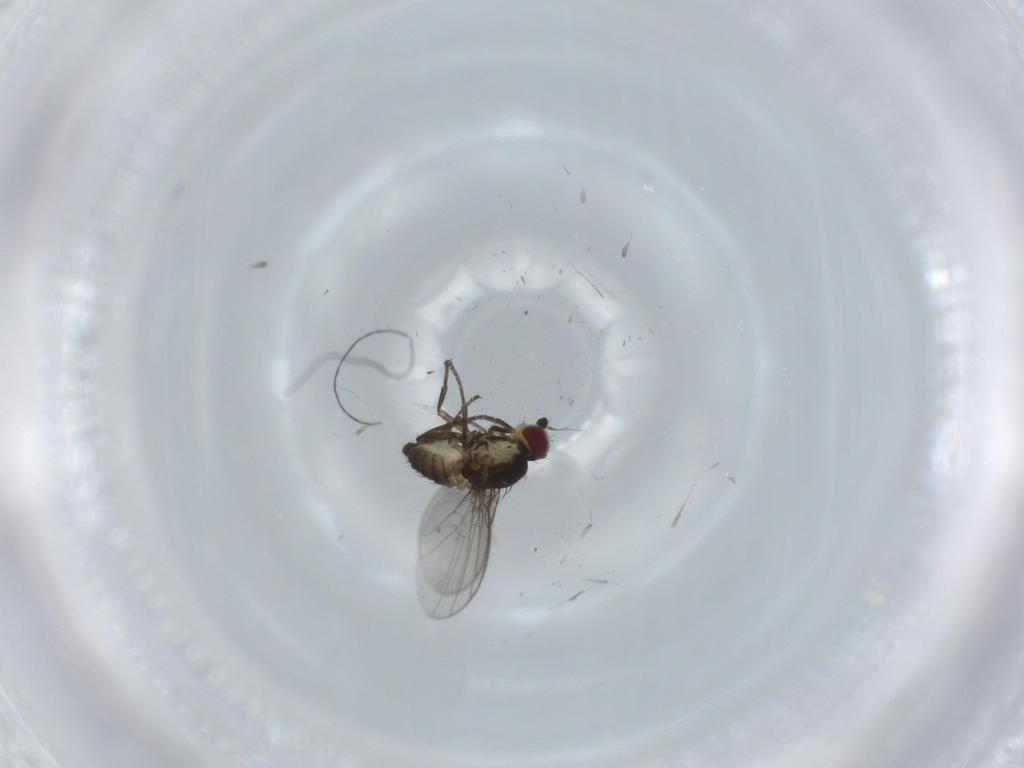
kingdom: Animalia
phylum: Arthropoda
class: Insecta
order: Diptera
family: Agromyzidae
